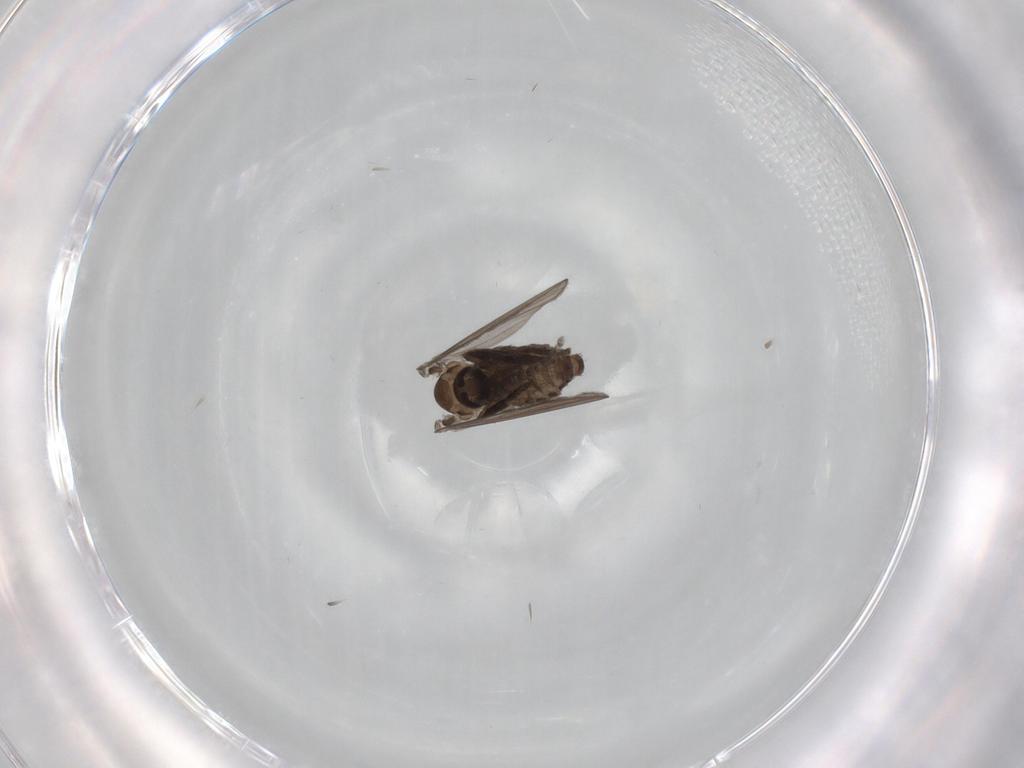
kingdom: Animalia
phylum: Arthropoda
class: Insecta
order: Diptera
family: Psychodidae
